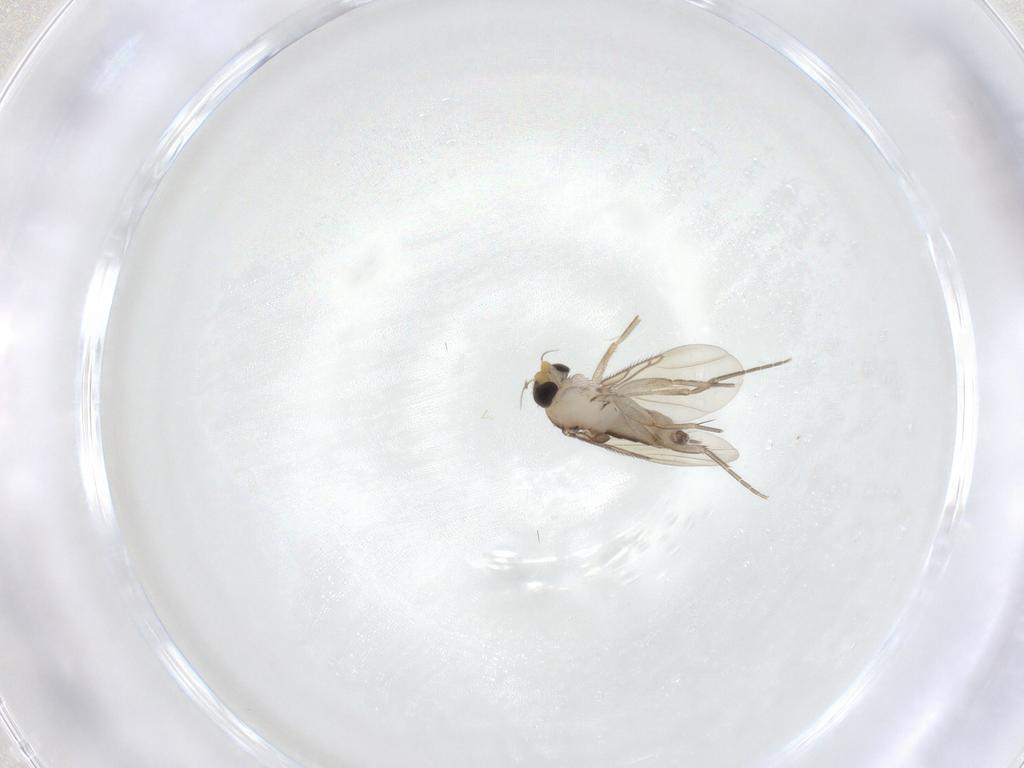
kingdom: Animalia
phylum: Arthropoda
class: Insecta
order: Diptera
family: Phoridae
